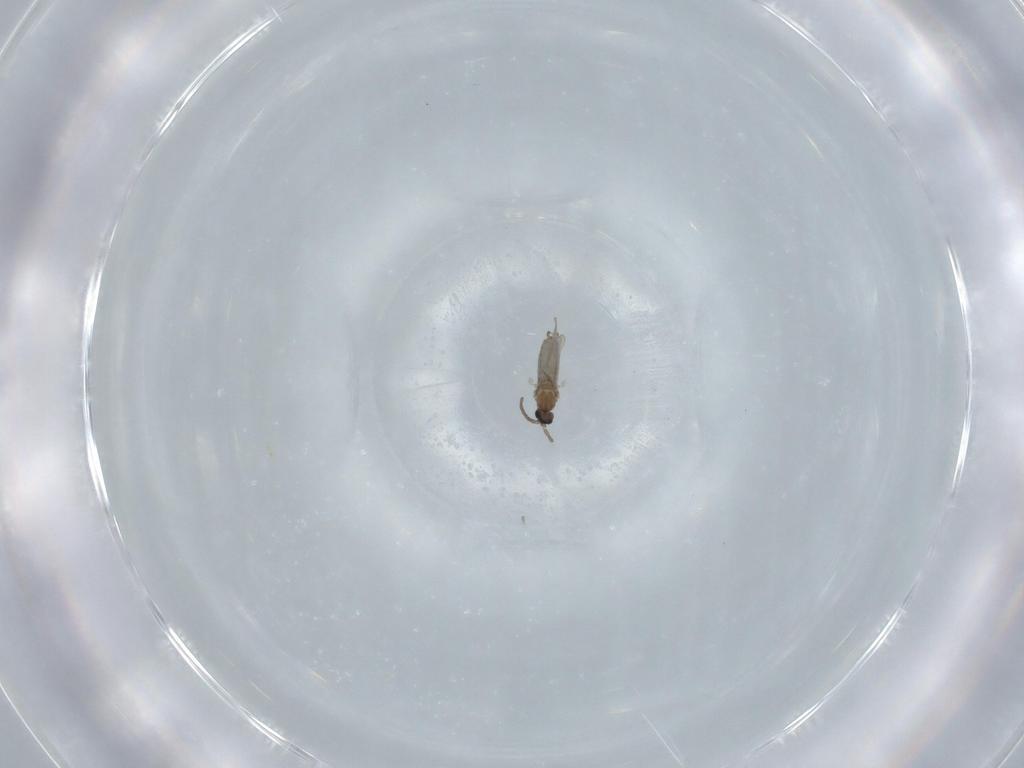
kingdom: Animalia
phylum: Arthropoda
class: Insecta
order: Diptera
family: Cecidomyiidae
